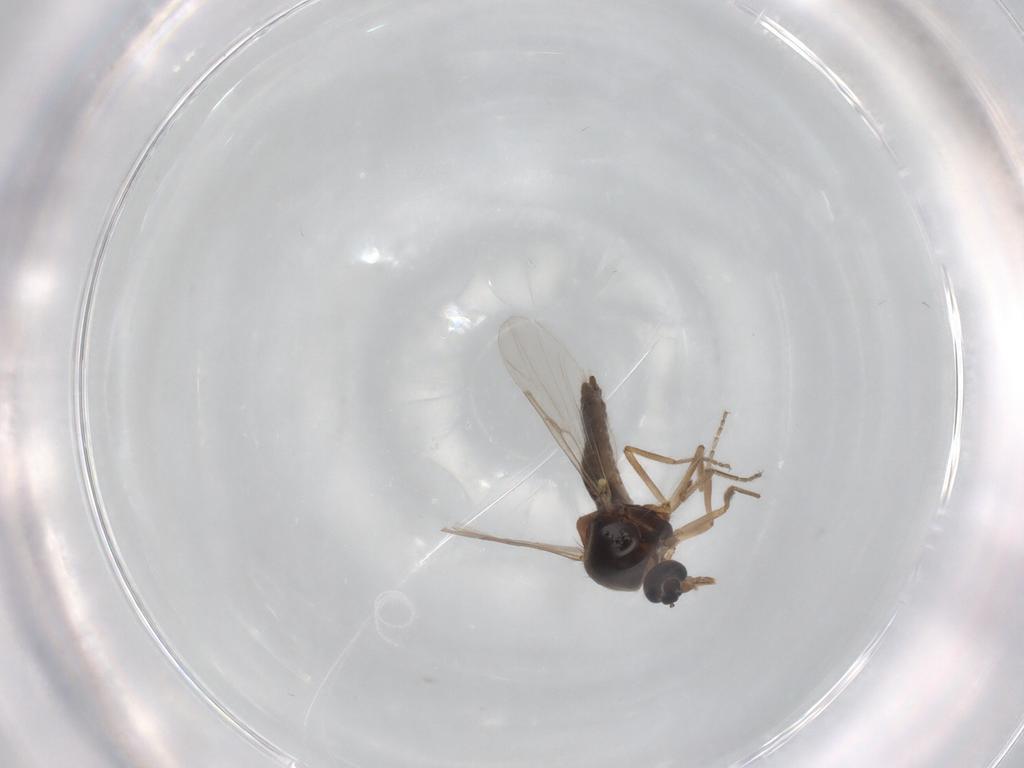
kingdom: Animalia
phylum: Arthropoda
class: Insecta
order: Diptera
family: Ceratopogonidae
